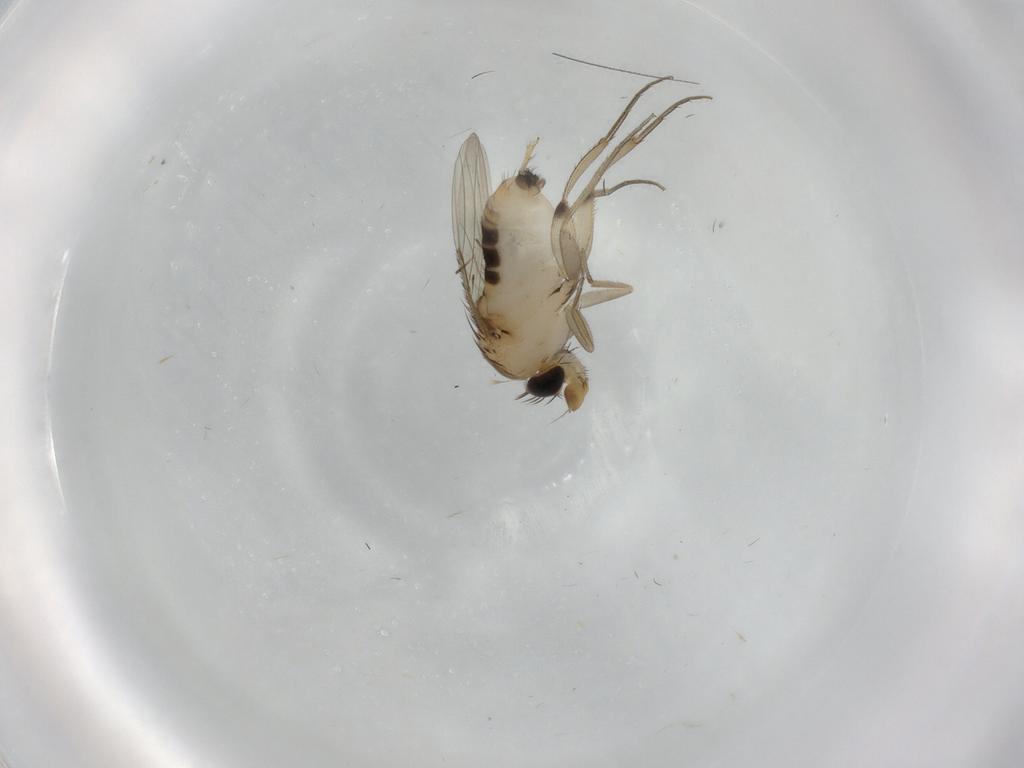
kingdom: Animalia
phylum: Arthropoda
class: Insecta
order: Diptera
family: Phoridae
